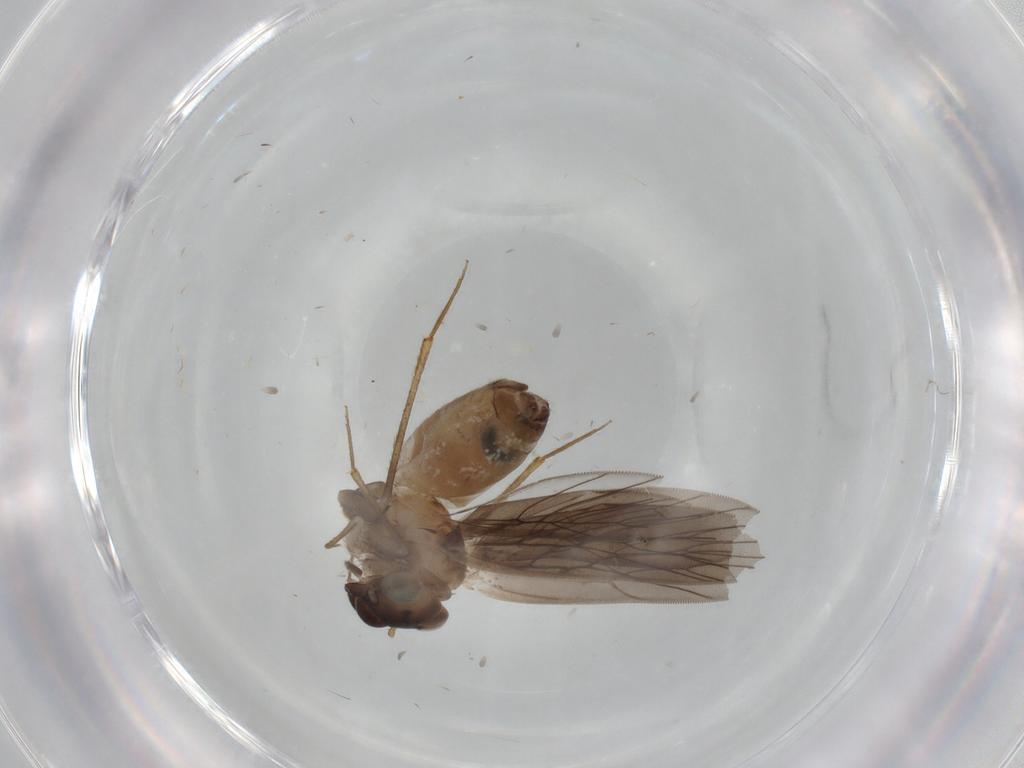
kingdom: Animalia
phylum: Arthropoda
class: Insecta
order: Psocodea
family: Lepidopsocidae
